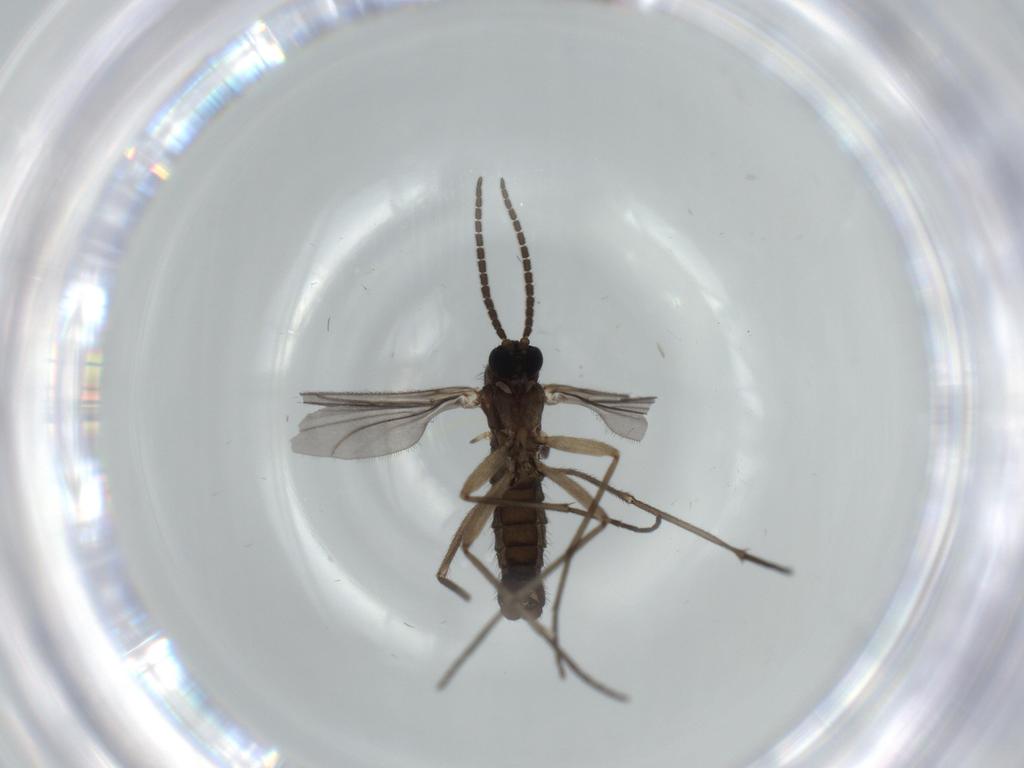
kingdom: Animalia
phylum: Arthropoda
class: Insecta
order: Diptera
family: Sciaridae
